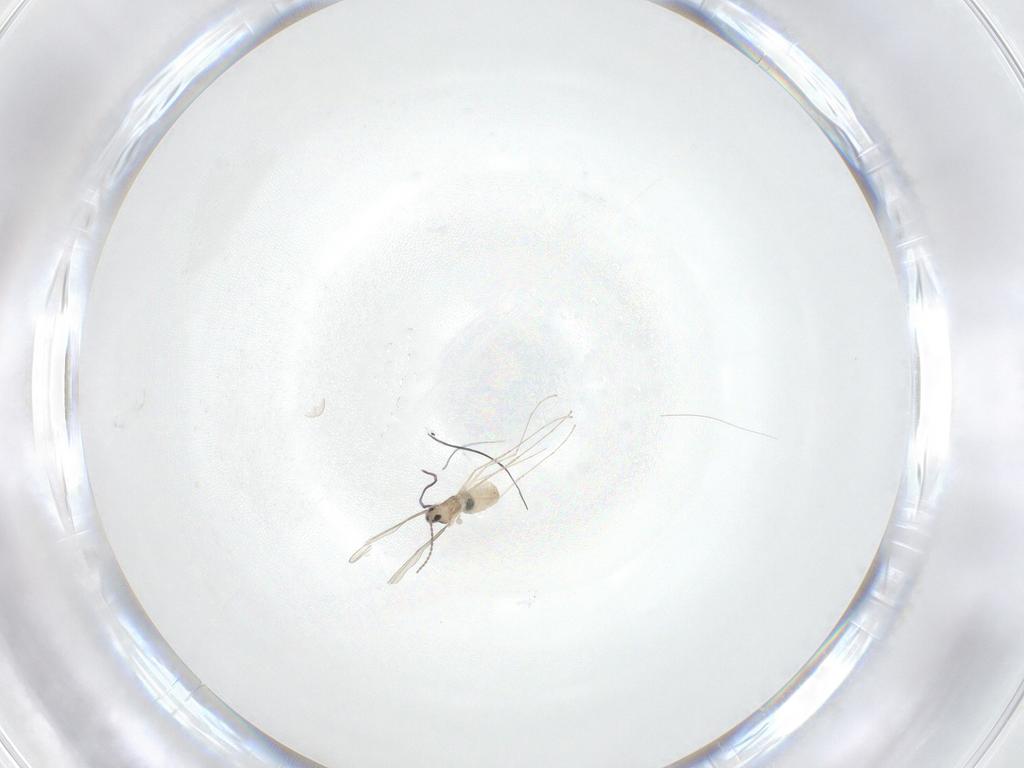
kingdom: Animalia
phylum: Arthropoda
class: Insecta
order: Diptera
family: Cecidomyiidae
